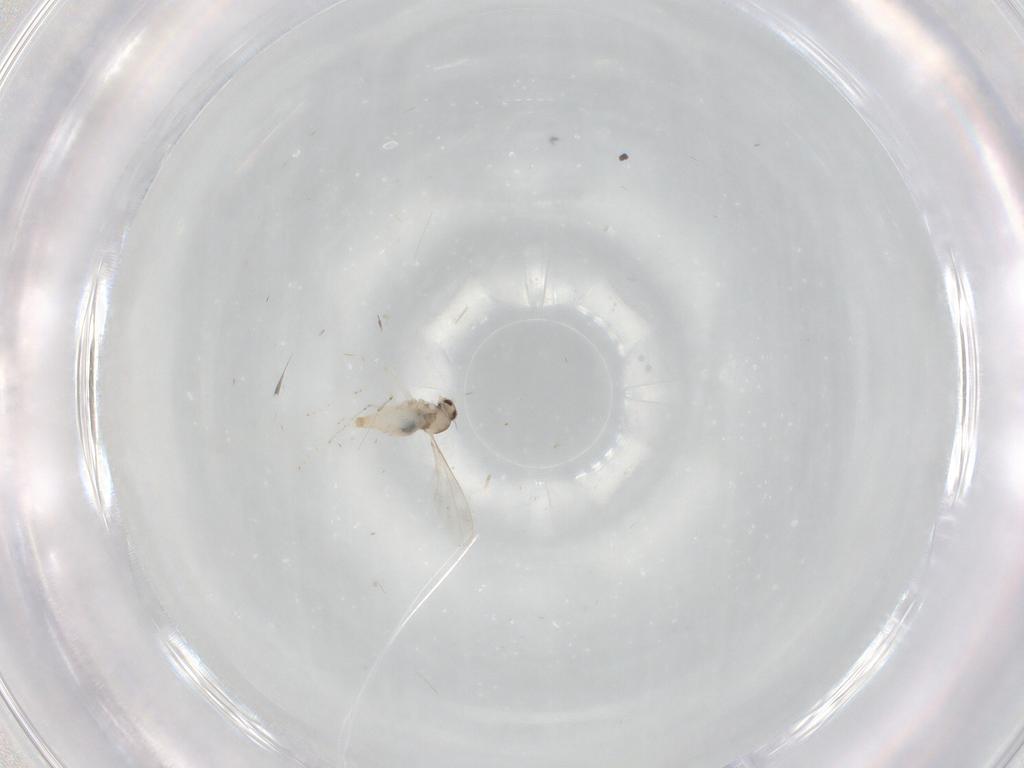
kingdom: Animalia
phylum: Arthropoda
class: Insecta
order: Diptera
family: Cecidomyiidae
